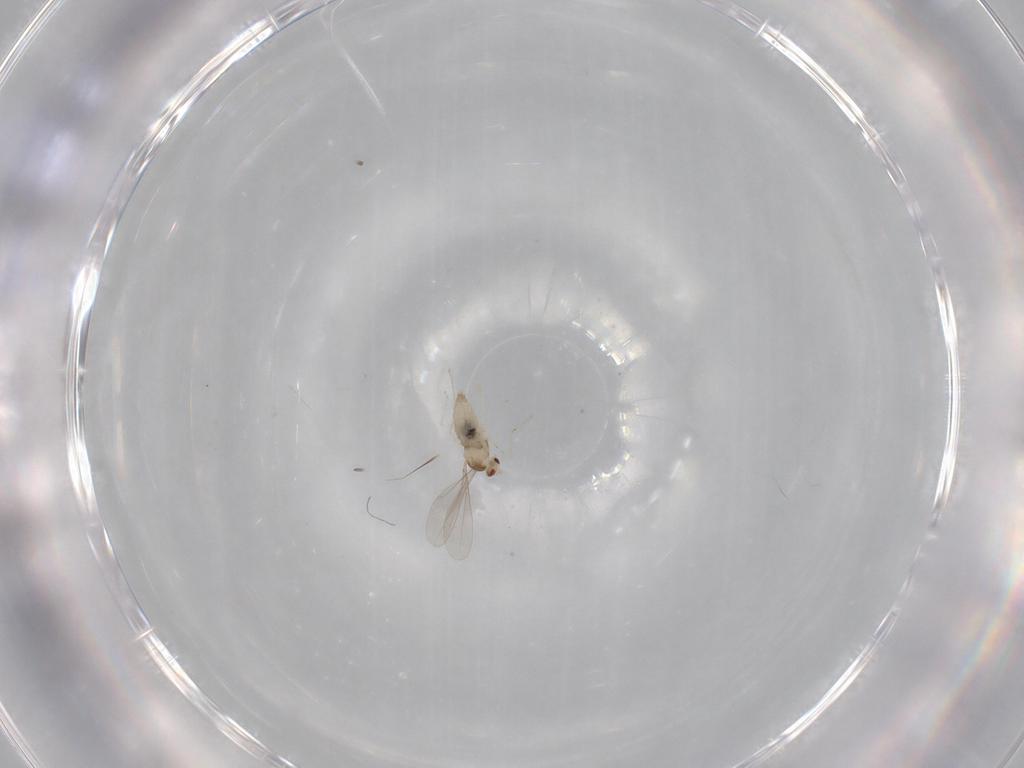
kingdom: Animalia
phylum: Arthropoda
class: Insecta
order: Diptera
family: Cecidomyiidae
